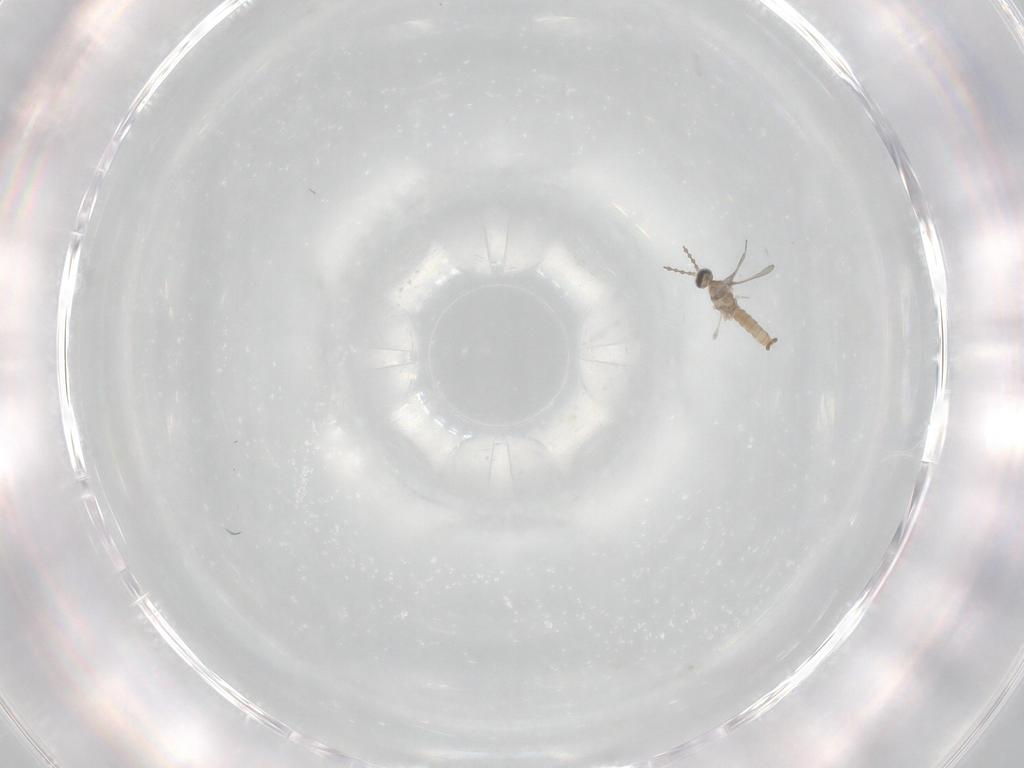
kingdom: Animalia
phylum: Arthropoda
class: Insecta
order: Diptera
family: Cecidomyiidae
